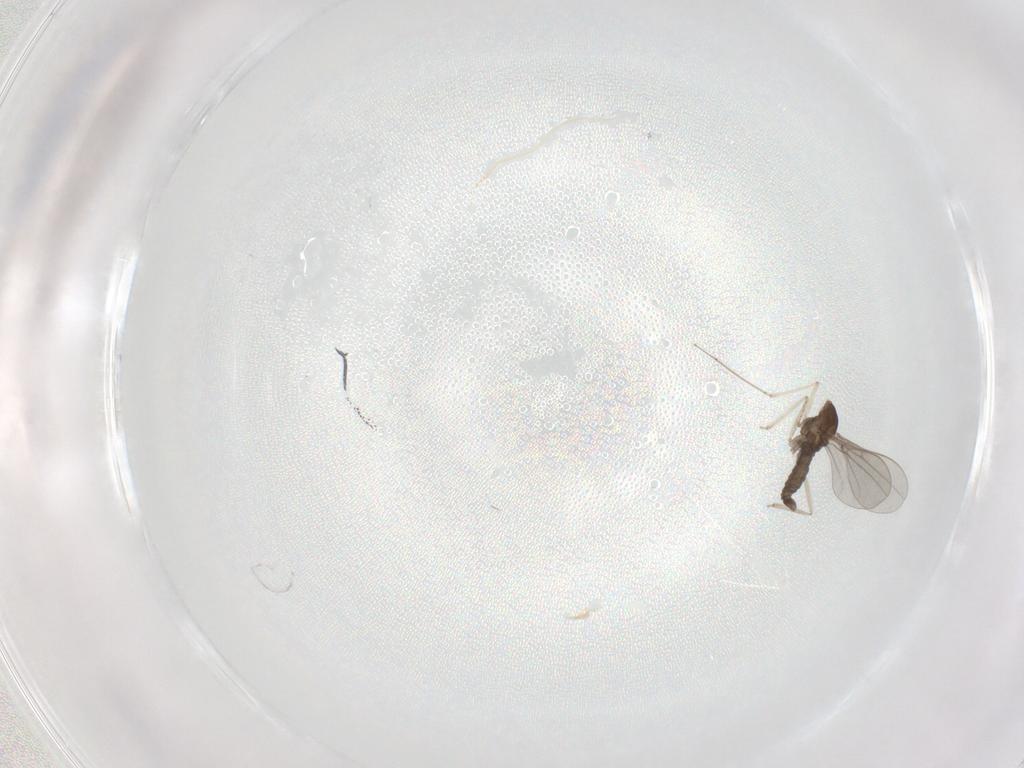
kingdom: Animalia
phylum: Arthropoda
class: Insecta
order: Diptera
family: Cecidomyiidae
